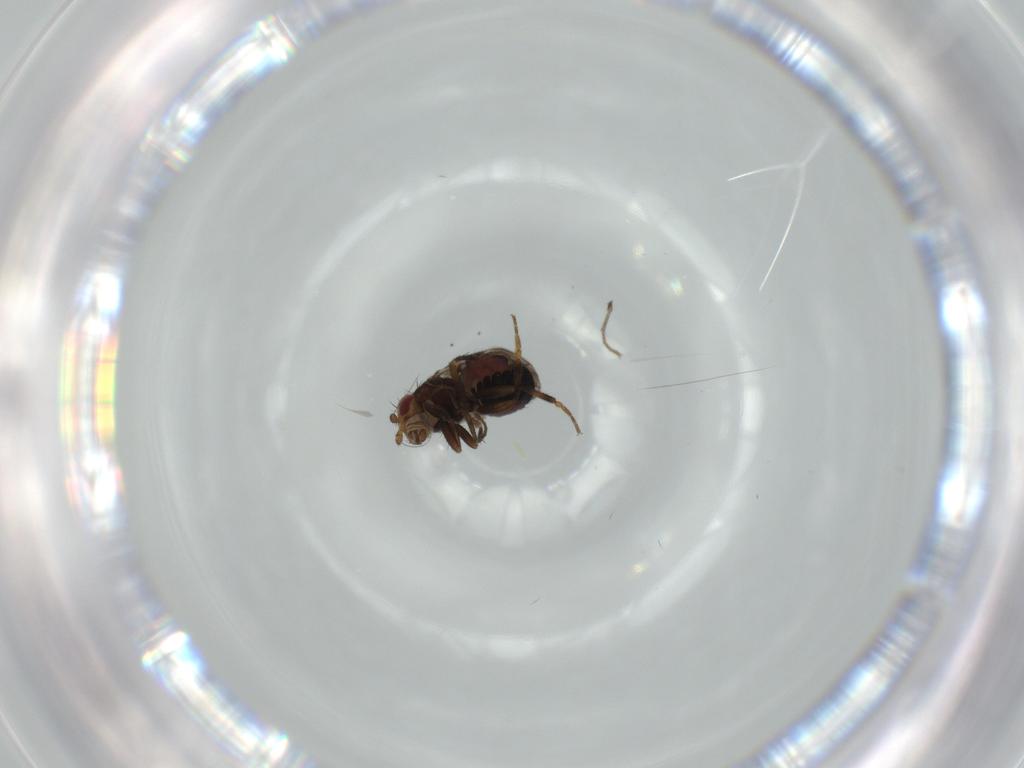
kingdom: Animalia
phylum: Arthropoda
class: Insecta
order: Diptera
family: Sphaeroceridae
